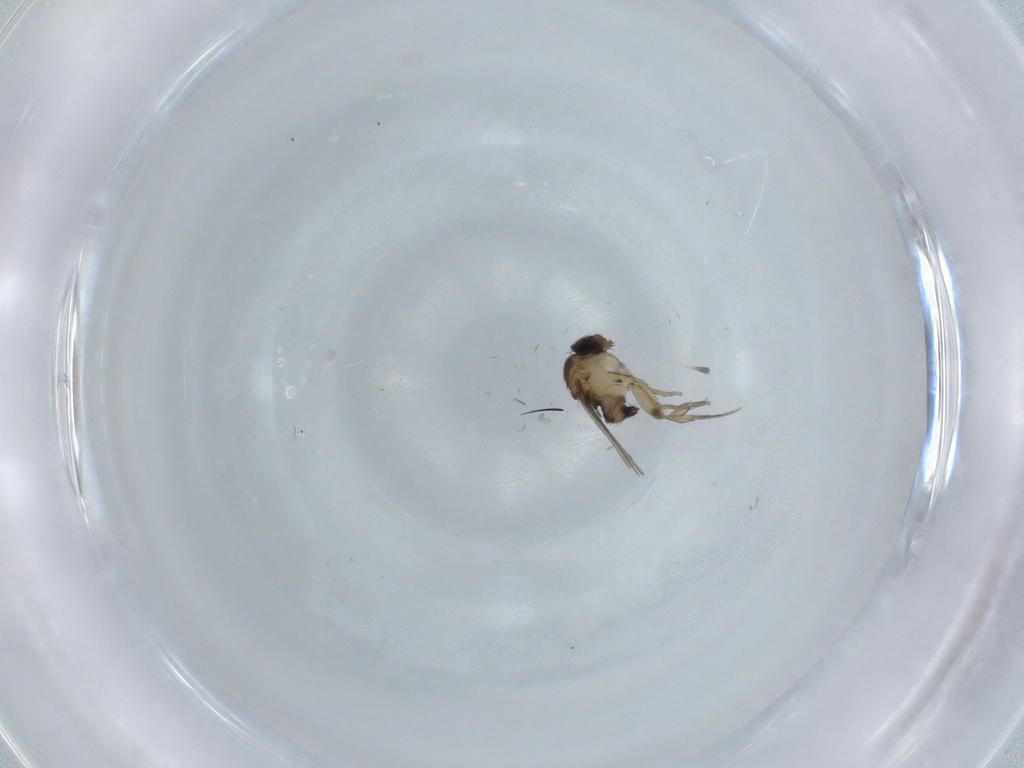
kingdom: Animalia
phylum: Arthropoda
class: Insecta
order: Diptera
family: Phoridae
